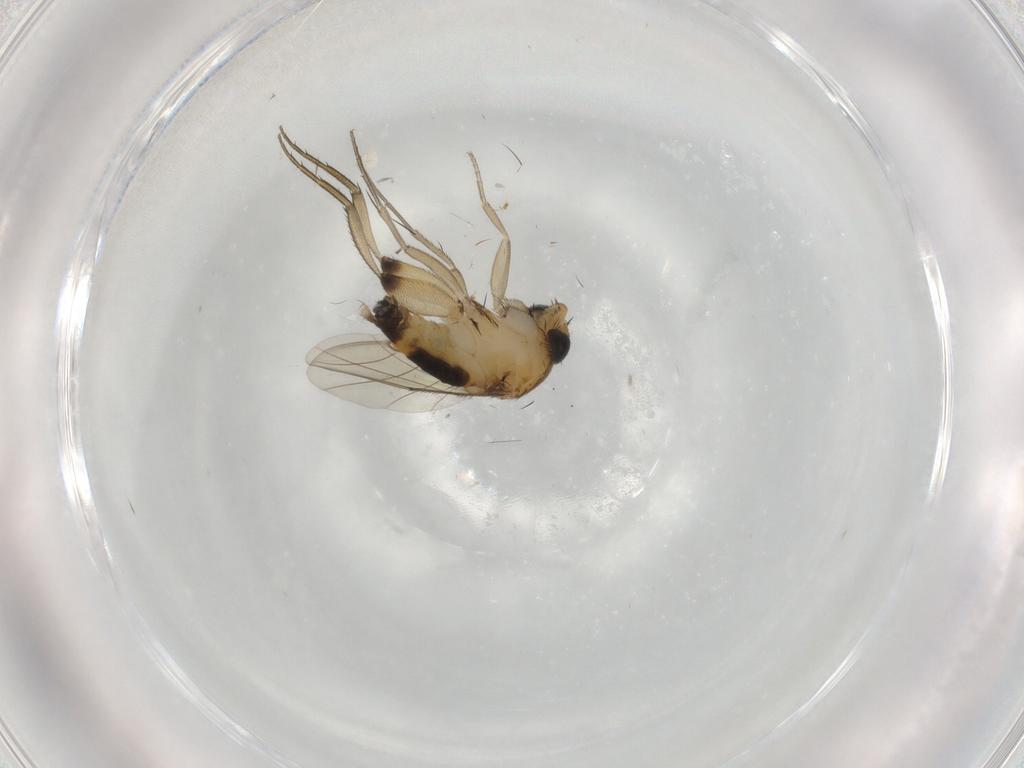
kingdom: Animalia
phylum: Arthropoda
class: Insecta
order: Diptera
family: Phoridae
